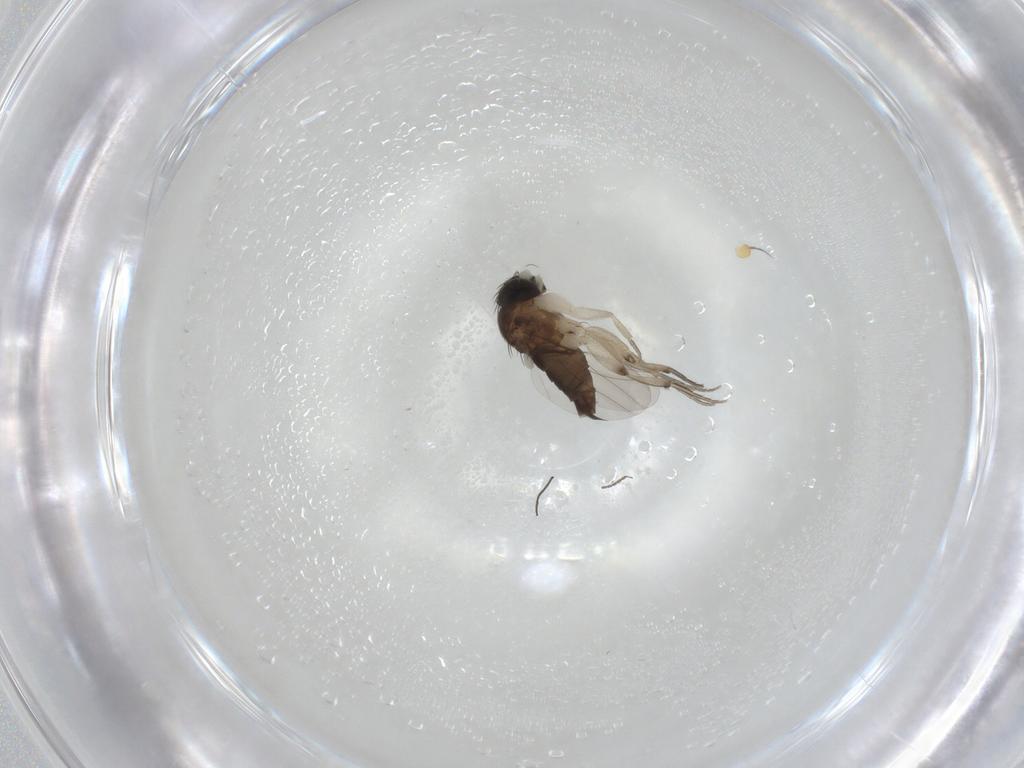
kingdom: Animalia
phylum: Arthropoda
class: Insecta
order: Diptera
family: Chloropidae
